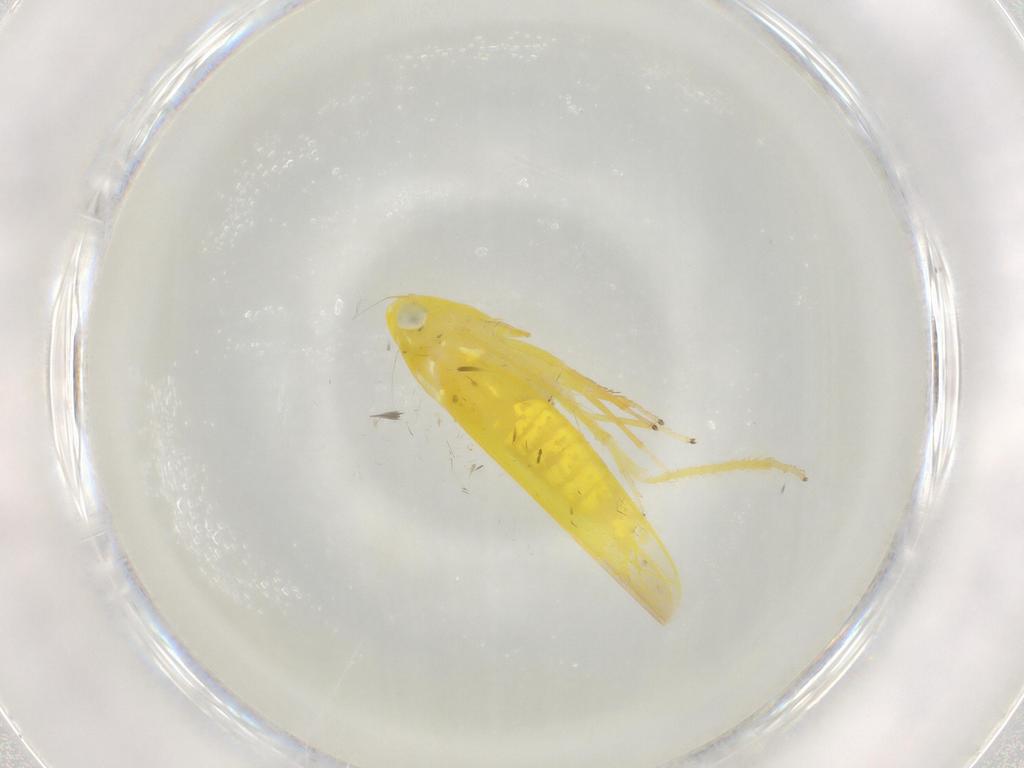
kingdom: Animalia
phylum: Arthropoda
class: Insecta
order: Hemiptera
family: Cicadellidae
